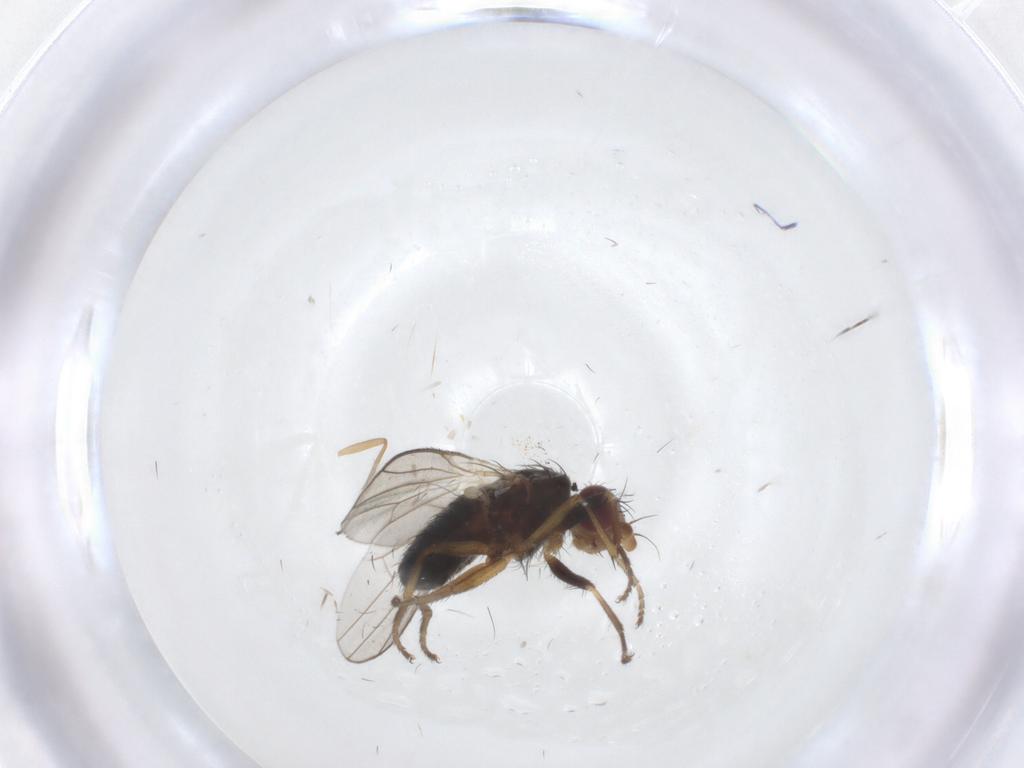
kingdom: Animalia
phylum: Arthropoda
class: Insecta
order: Diptera
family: Heleomyzidae
